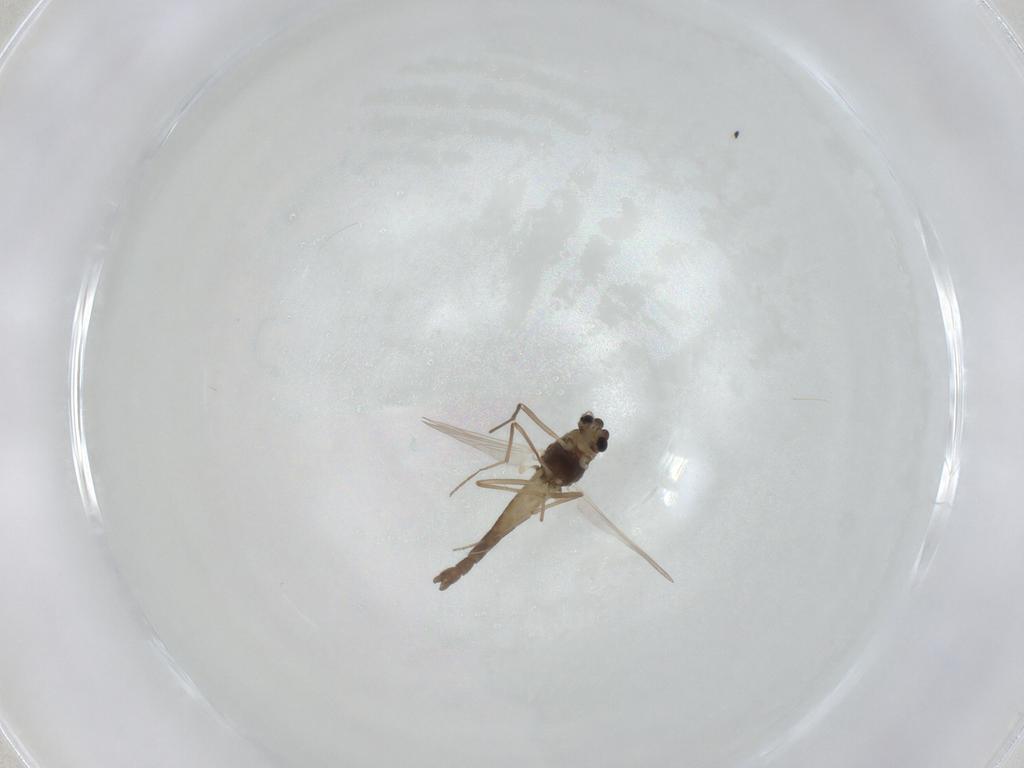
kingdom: Animalia
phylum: Arthropoda
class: Insecta
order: Diptera
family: Chironomidae
